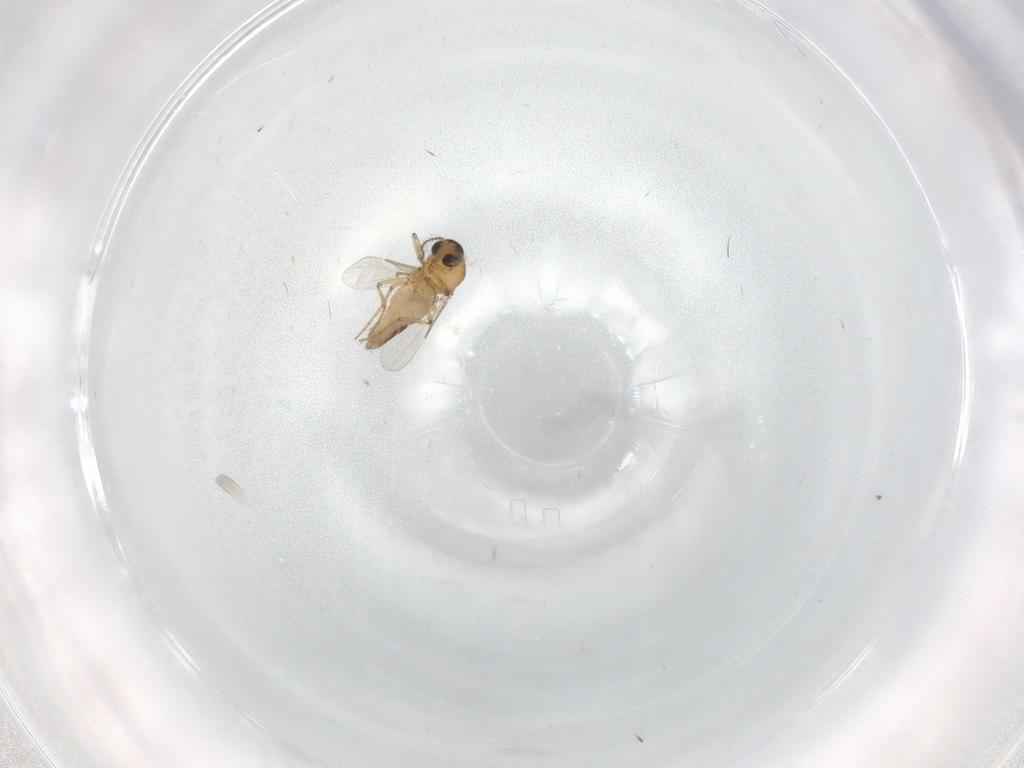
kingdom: Animalia
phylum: Arthropoda
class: Insecta
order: Diptera
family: Ceratopogonidae
